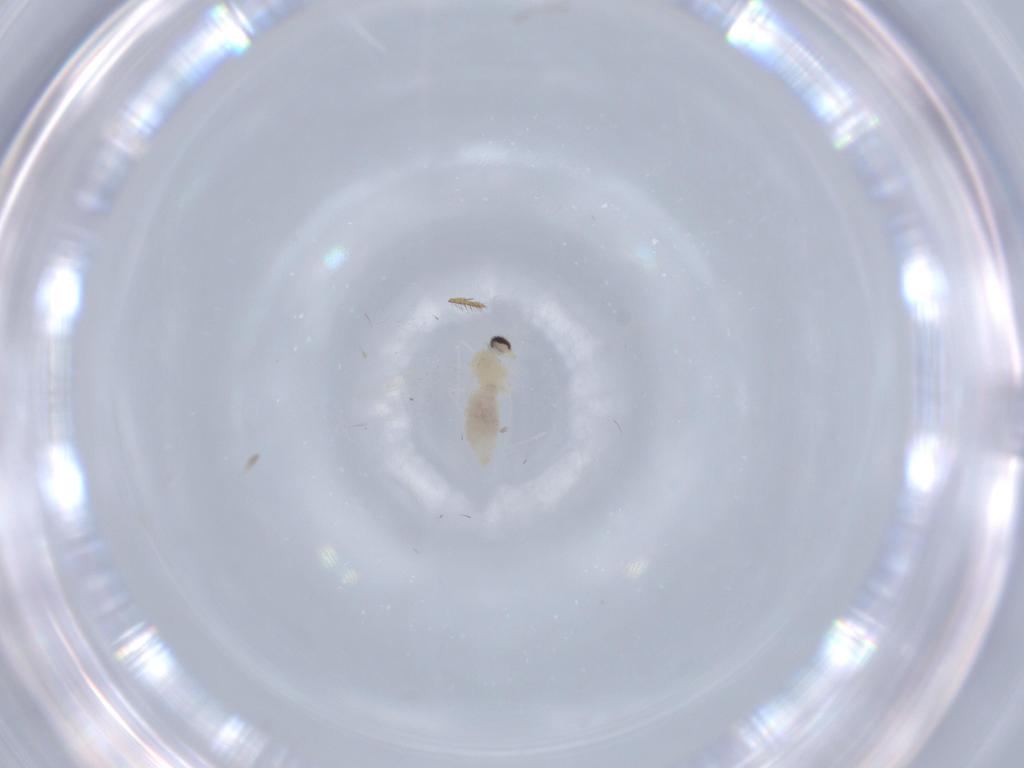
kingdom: Animalia
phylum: Arthropoda
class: Insecta
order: Diptera
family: Cecidomyiidae
